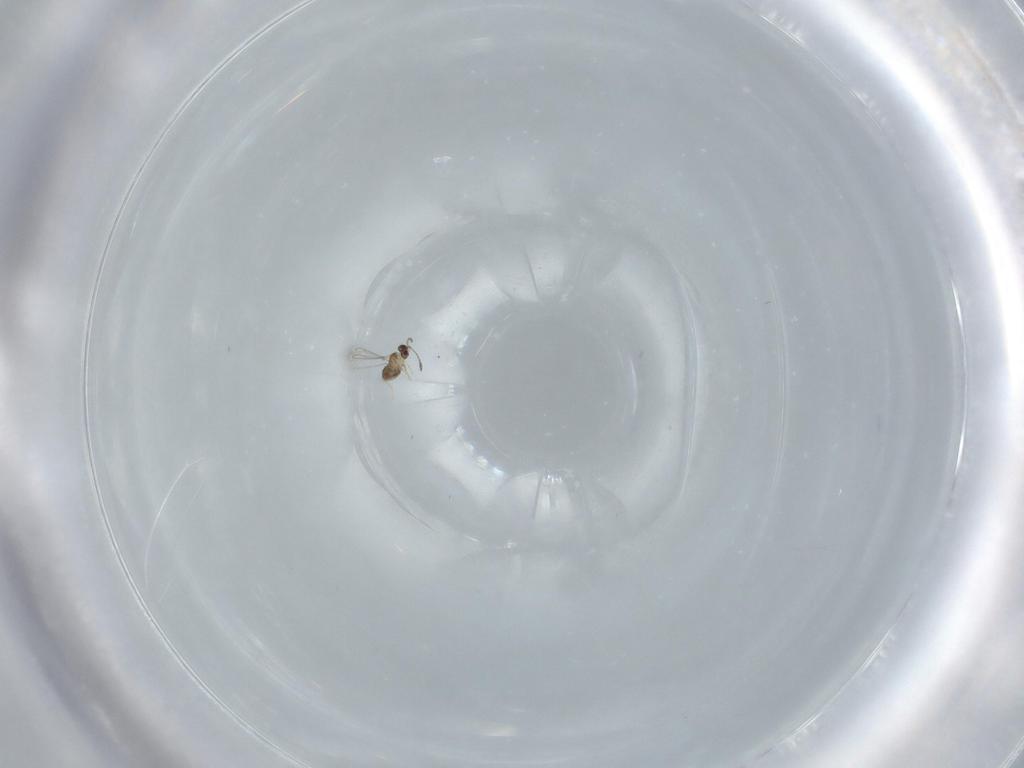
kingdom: Animalia
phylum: Arthropoda
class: Insecta
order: Hymenoptera
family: Mymaridae
